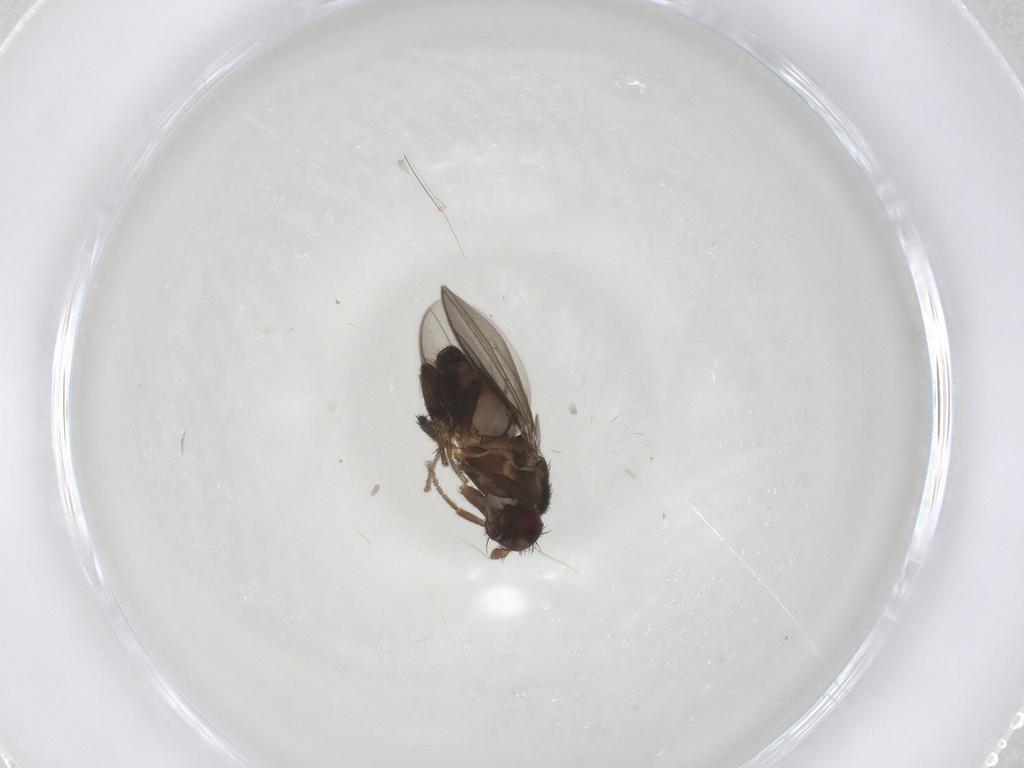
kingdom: Animalia
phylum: Arthropoda
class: Insecta
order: Diptera
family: Sphaeroceridae
